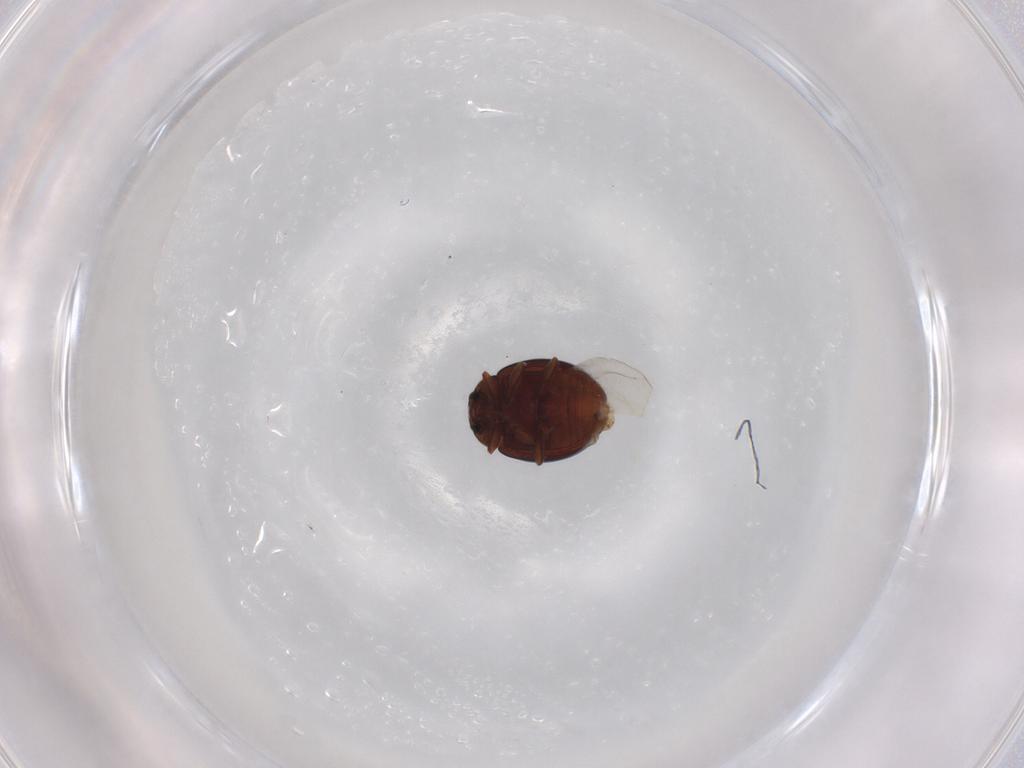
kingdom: Animalia
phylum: Arthropoda
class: Insecta
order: Coleoptera
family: Coccinellidae
